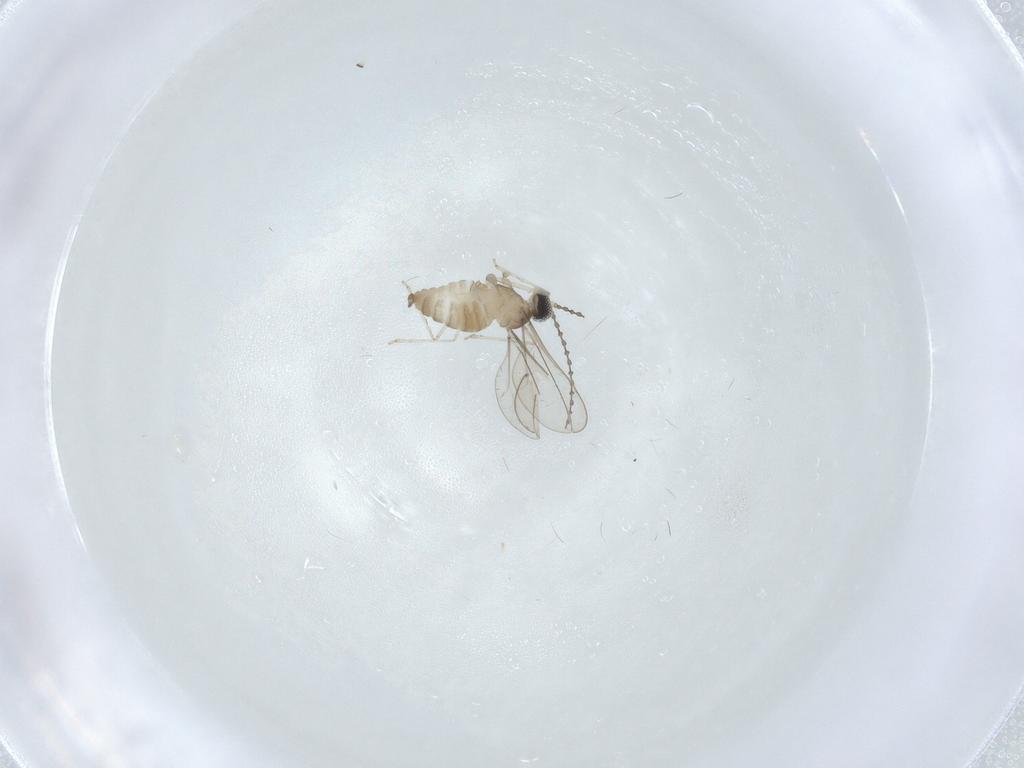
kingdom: Animalia
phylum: Arthropoda
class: Insecta
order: Diptera
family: Cecidomyiidae
